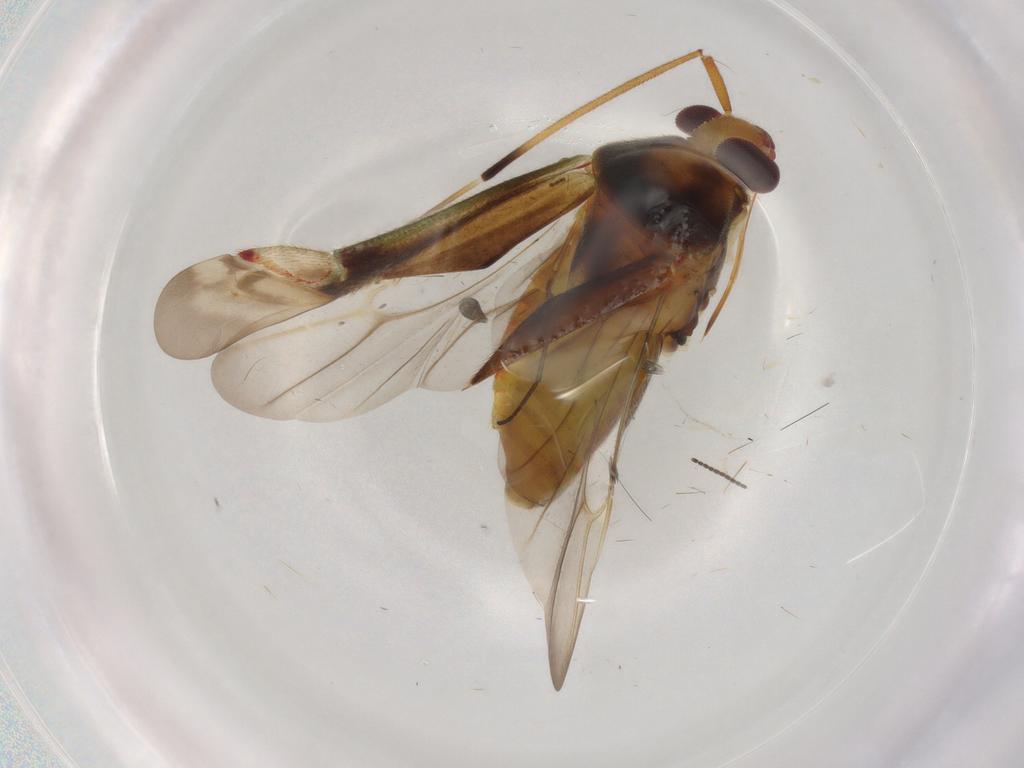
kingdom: Animalia
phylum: Arthropoda
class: Insecta
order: Hemiptera
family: Miridae
